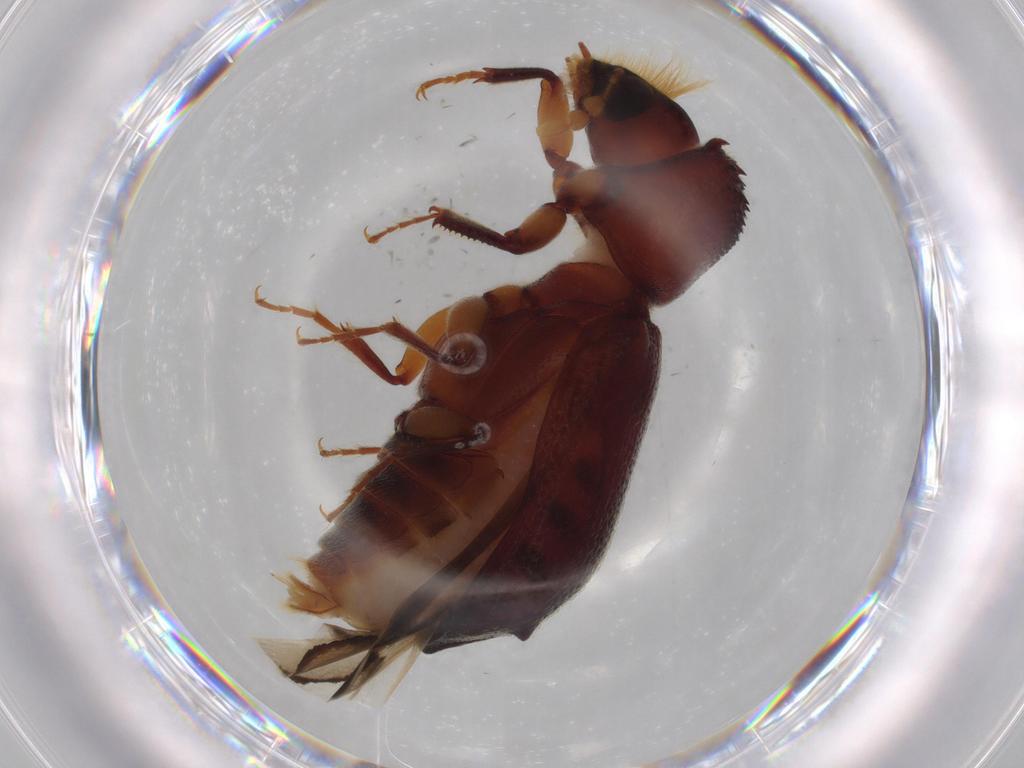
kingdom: Animalia
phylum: Arthropoda
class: Insecta
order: Coleoptera
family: Bostrichidae
